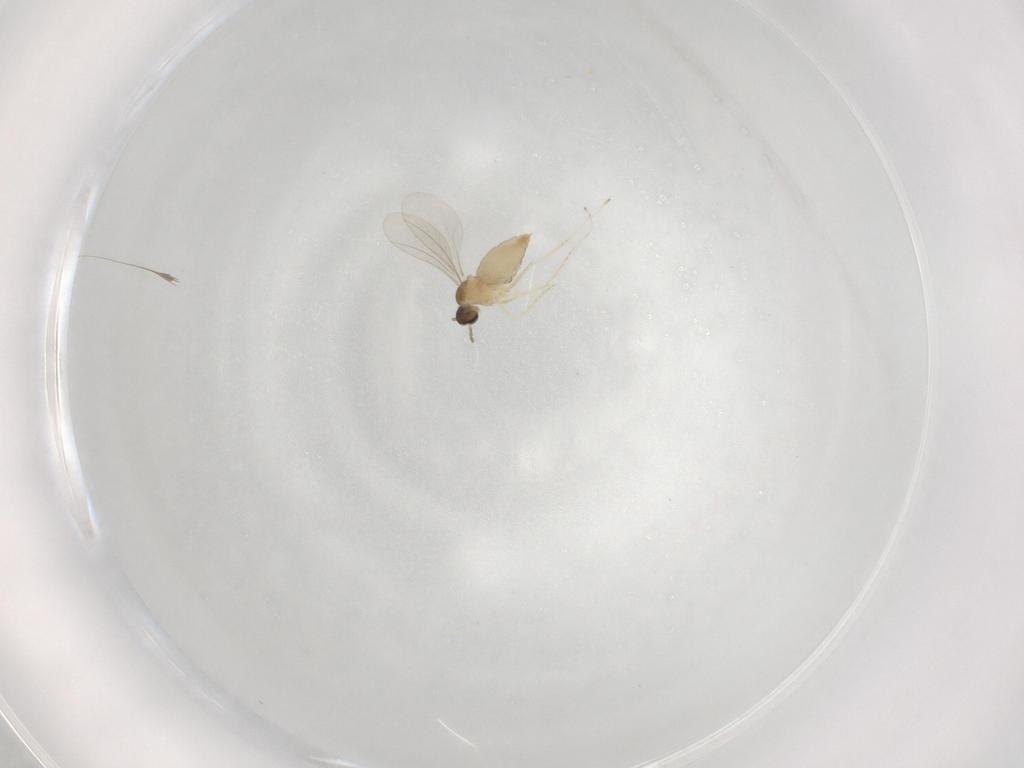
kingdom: Animalia
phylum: Arthropoda
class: Insecta
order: Diptera
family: Cecidomyiidae
